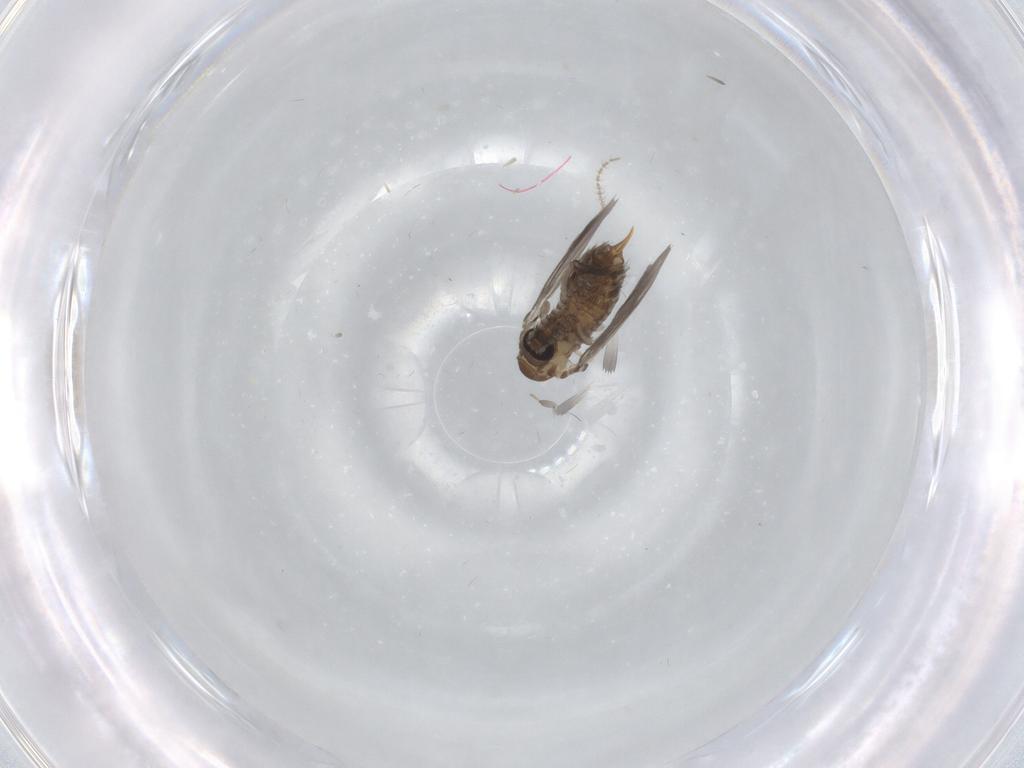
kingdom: Animalia
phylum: Arthropoda
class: Insecta
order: Diptera
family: Ceratopogonidae
